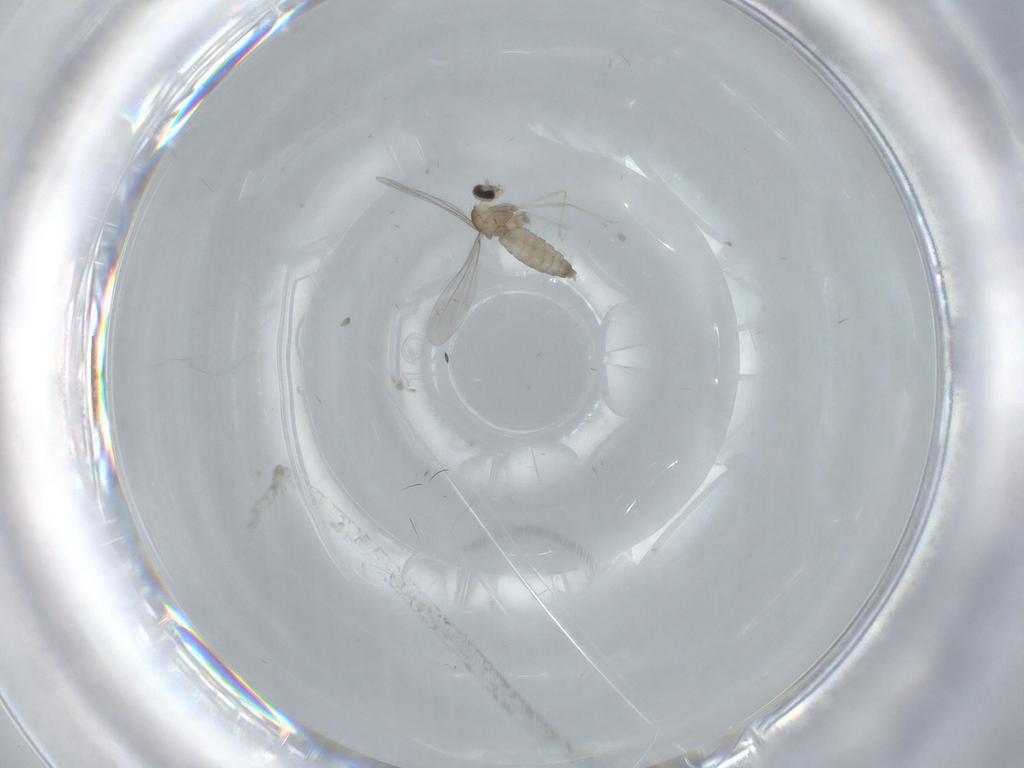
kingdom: Animalia
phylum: Arthropoda
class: Insecta
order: Diptera
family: Cecidomyiidae
